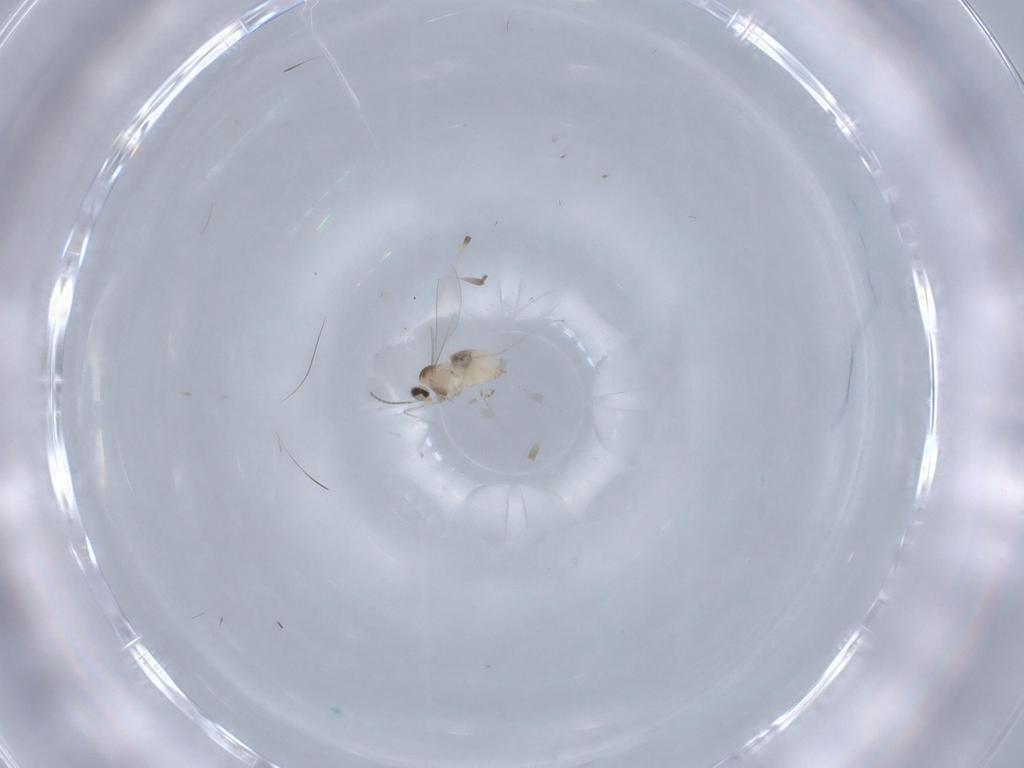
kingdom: Animalia
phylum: Arthropoda
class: Insecta
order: Diptera
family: Cecidomyiidae
